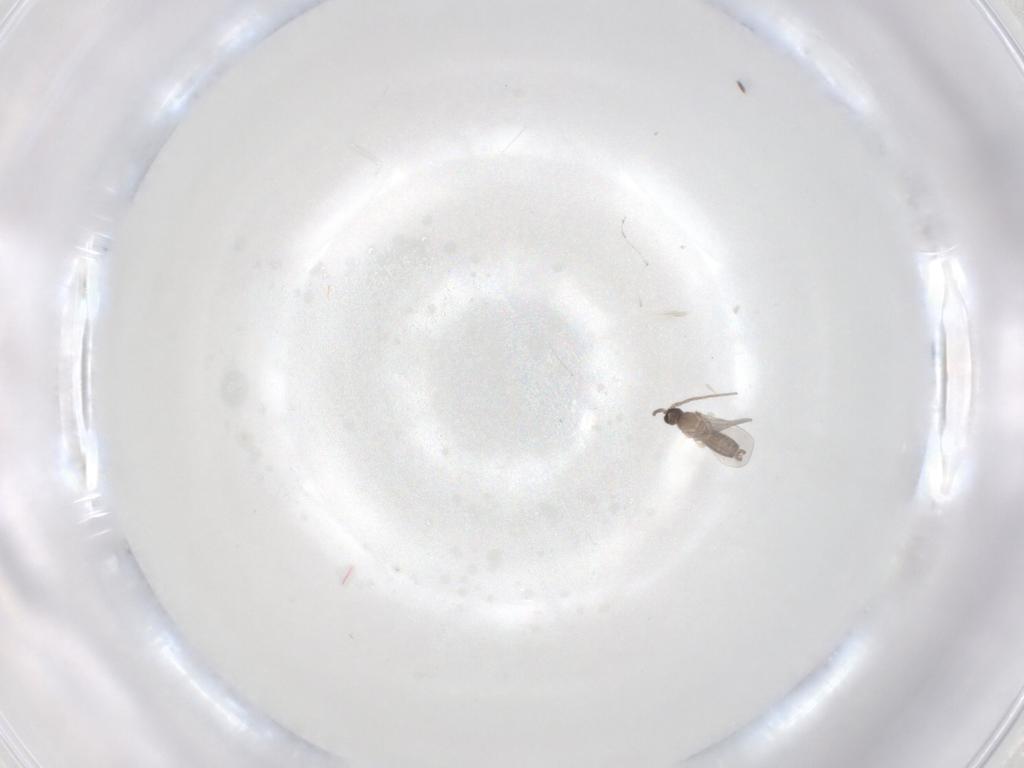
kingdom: Animalia
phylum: Arthropoda
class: Insecta
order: Diptera
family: Cecidomyiidae
